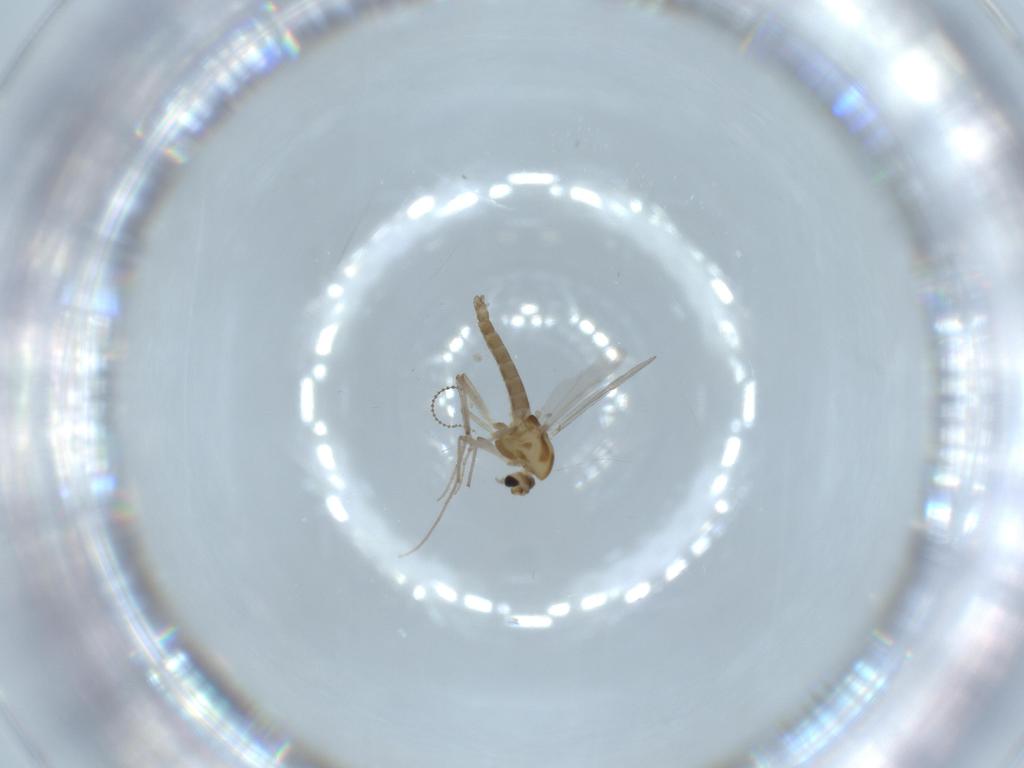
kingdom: Animalia
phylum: Arthropoda
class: Insecta
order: Diptera
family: Chironomidae
